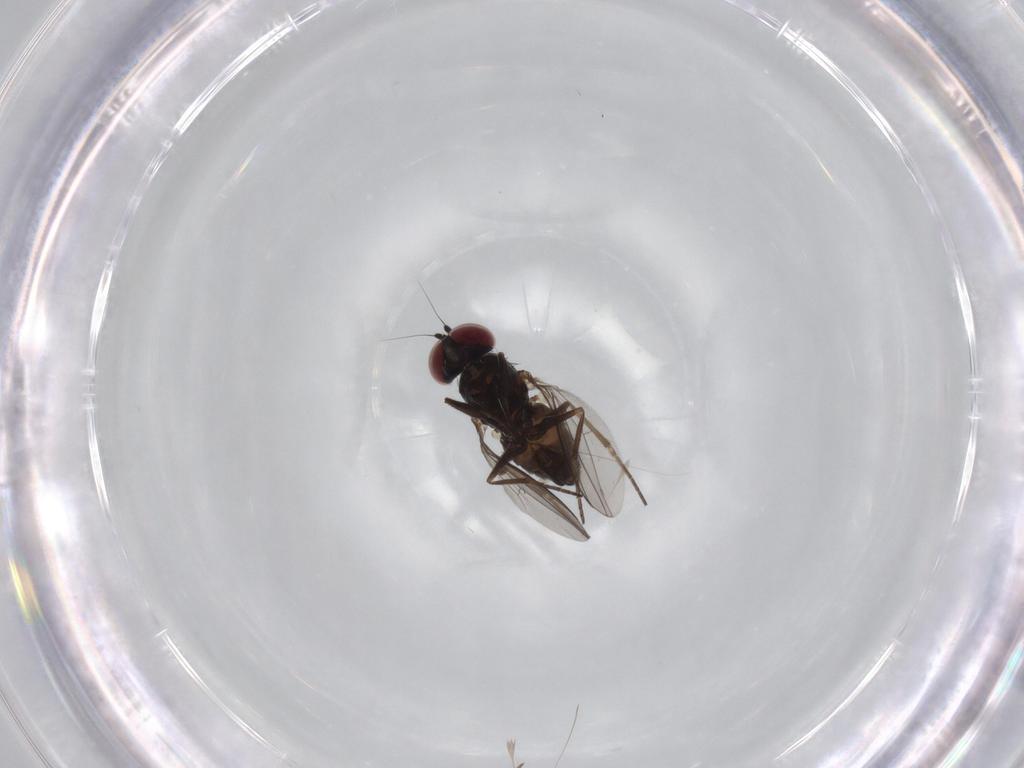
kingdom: Animalia
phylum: Arthropoda
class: Insecta
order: Diptera
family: Dolichopodidae
